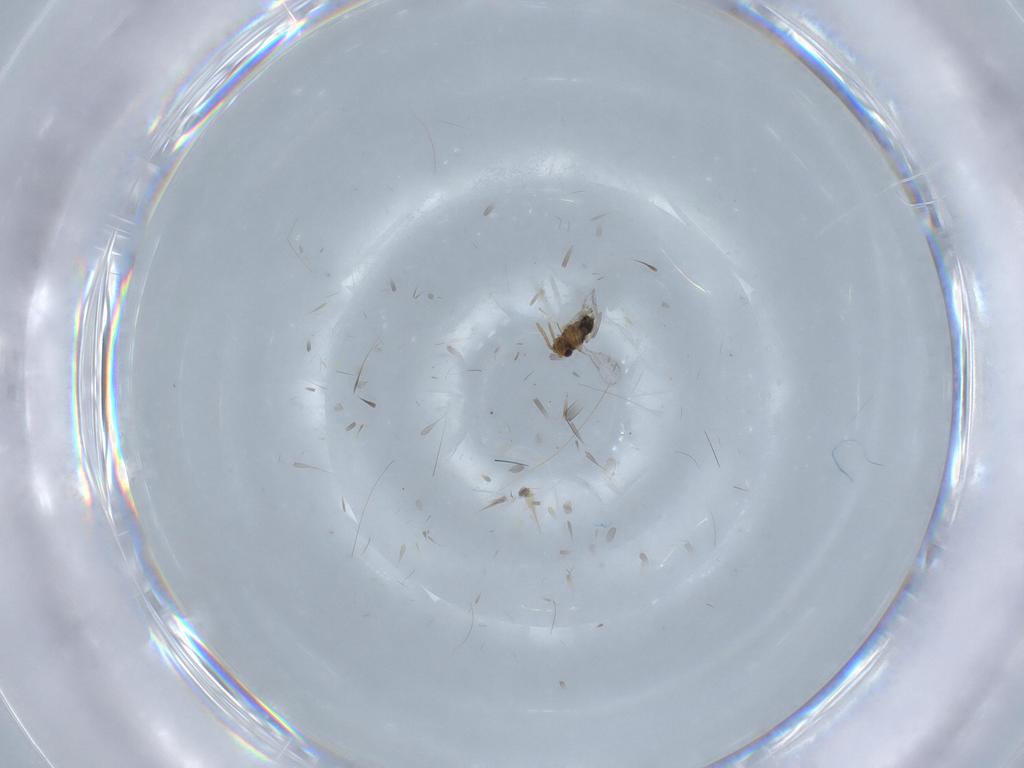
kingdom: Animalia
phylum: Arthropoda
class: Insecta
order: Hymenoptera
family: Aphelinidae
